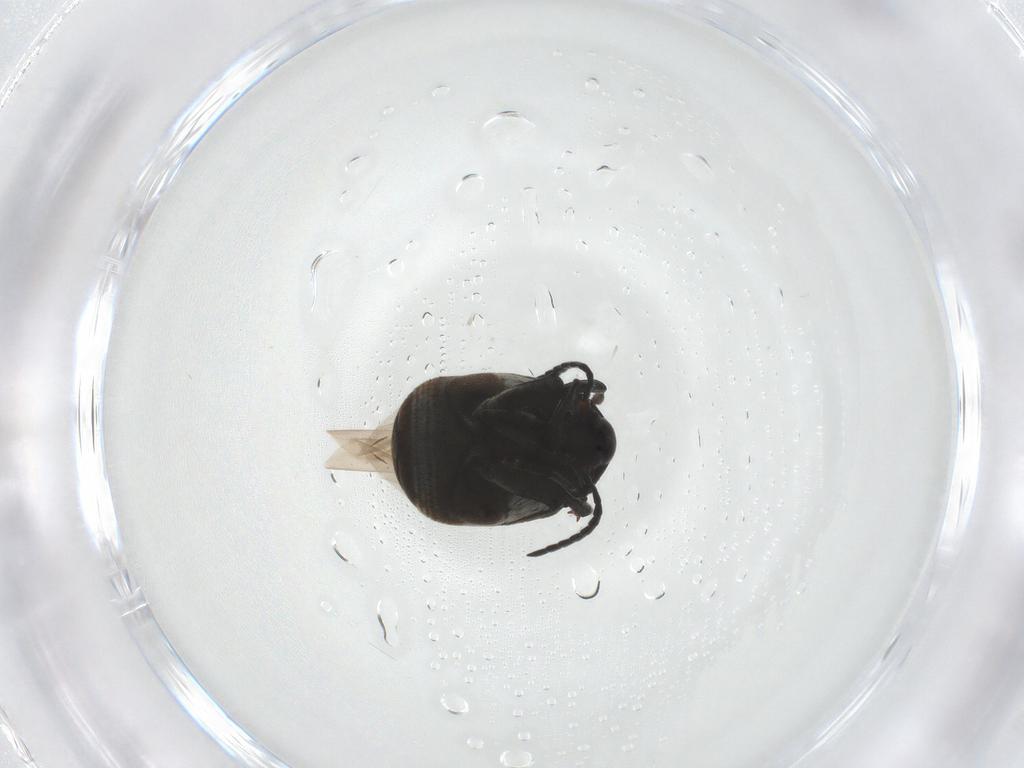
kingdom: Animalia
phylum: Arthropoda
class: Insecta
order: Coleoptera
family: Chrysomelidae
